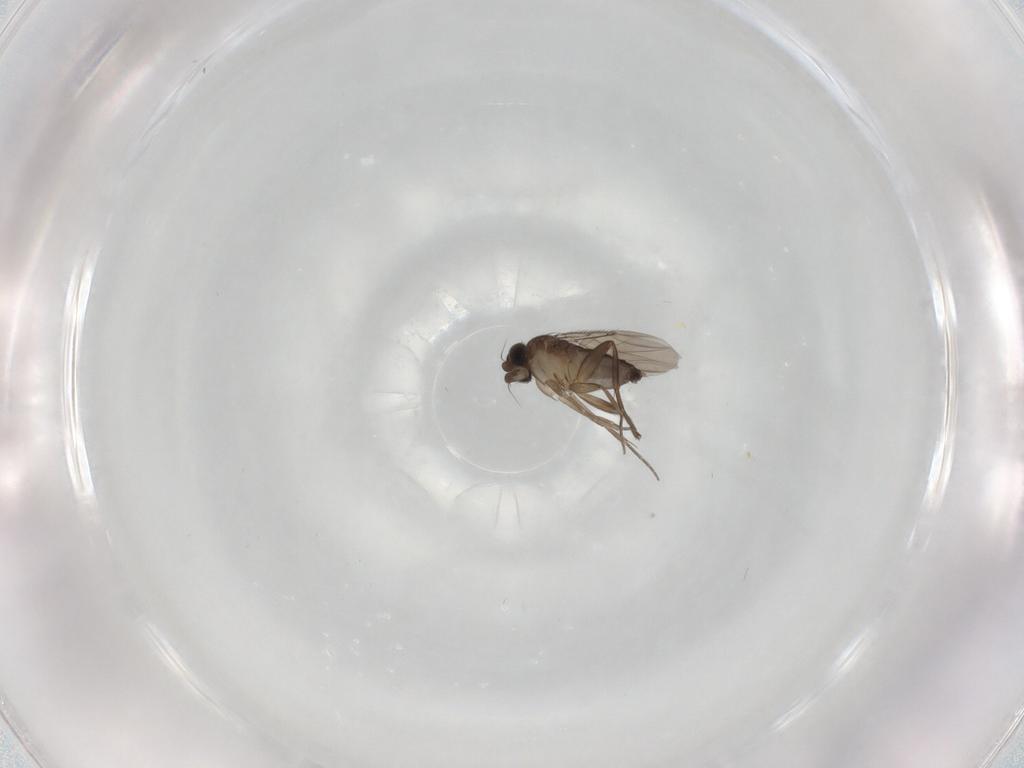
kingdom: Animalia
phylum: Arthropoda
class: Insecta
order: Diptera
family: Phoridae
